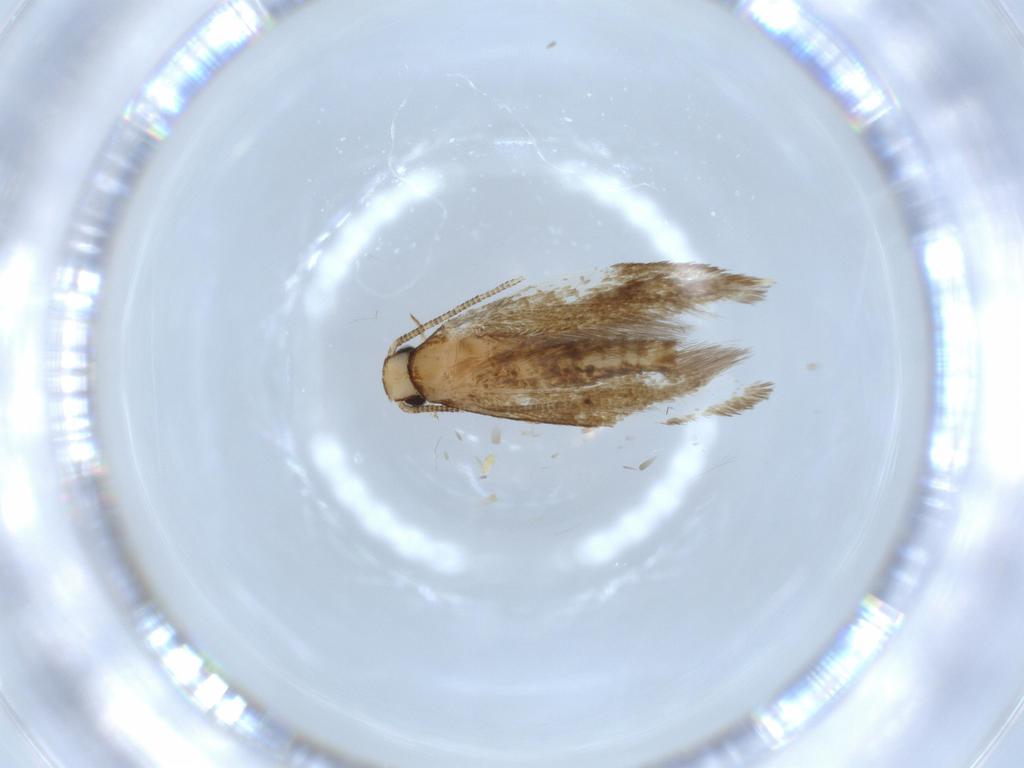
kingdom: Animalia
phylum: Arthropoda
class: Insecta
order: Lepidoptera
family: Tineidae
